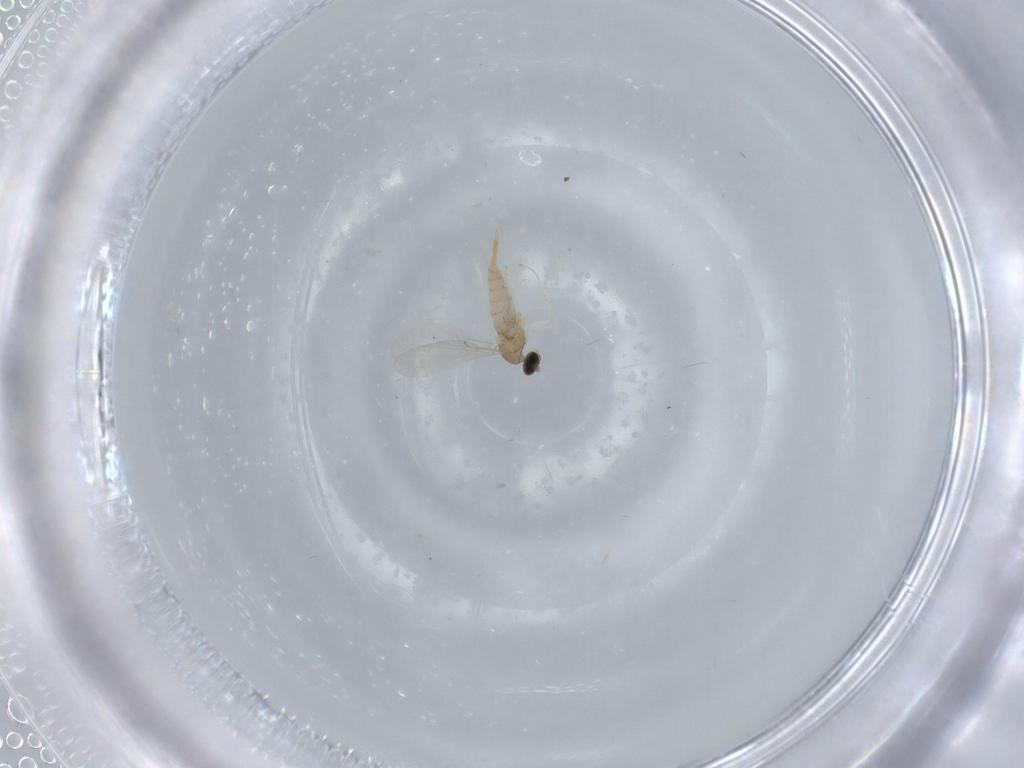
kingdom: Animalia
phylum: Arthropoda
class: Insecta
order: Diptera
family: Cecidomyiidae
